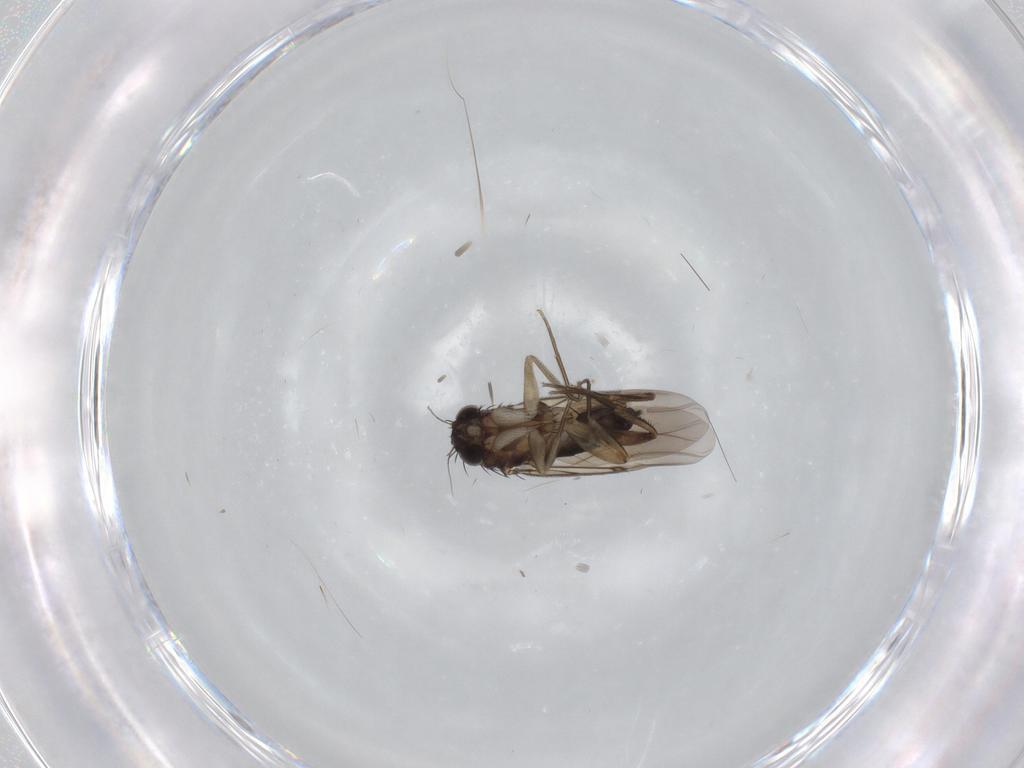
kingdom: Animalia
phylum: Arthropoda
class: Insecta
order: Diptera
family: Phoridae
